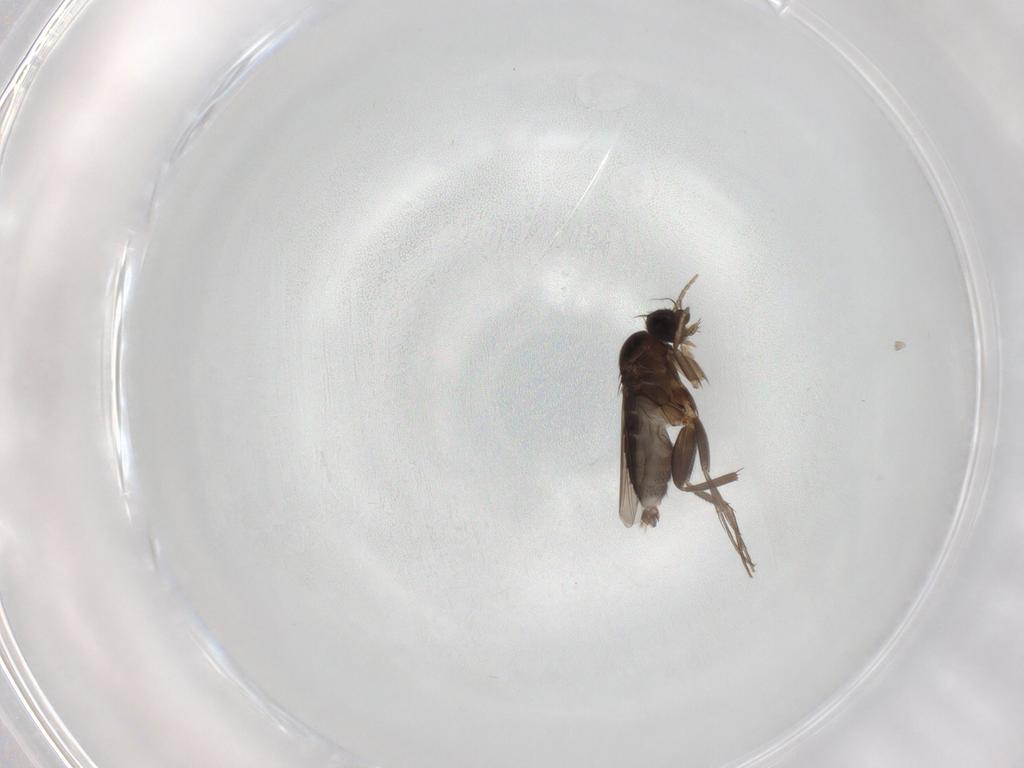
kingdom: Animalia
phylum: Arthropoda
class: Insecta
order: Diptera
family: Phoridae
